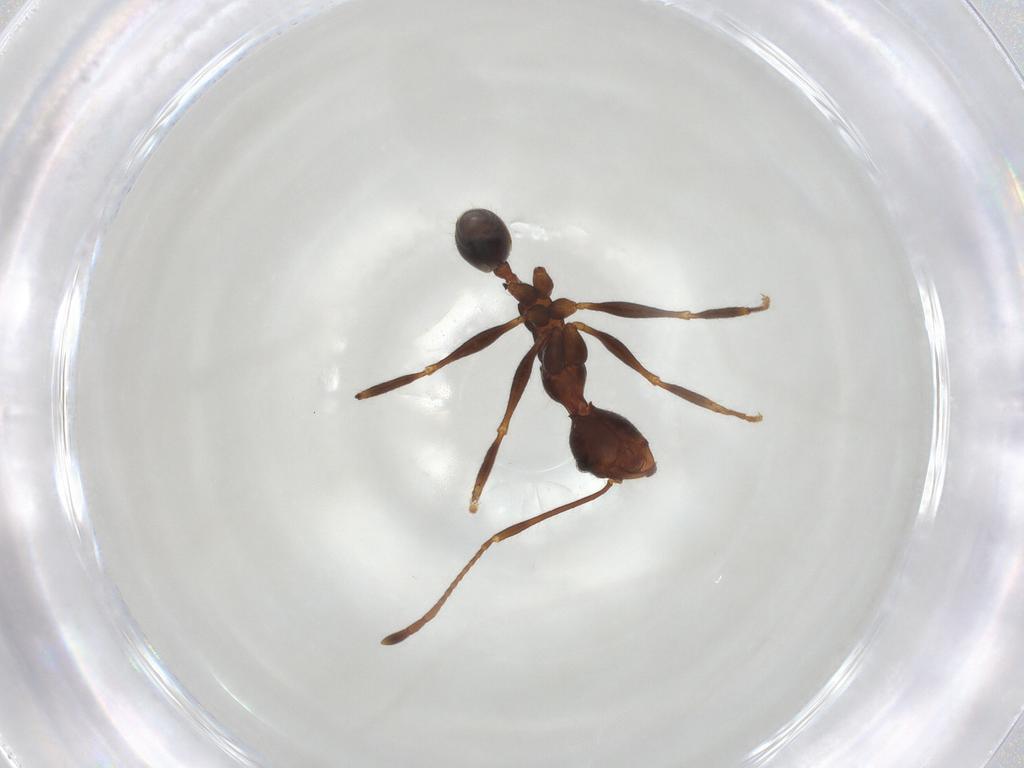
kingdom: Animalia
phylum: Arthropoda
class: Insecta
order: Hymenoptera
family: Formicidae
